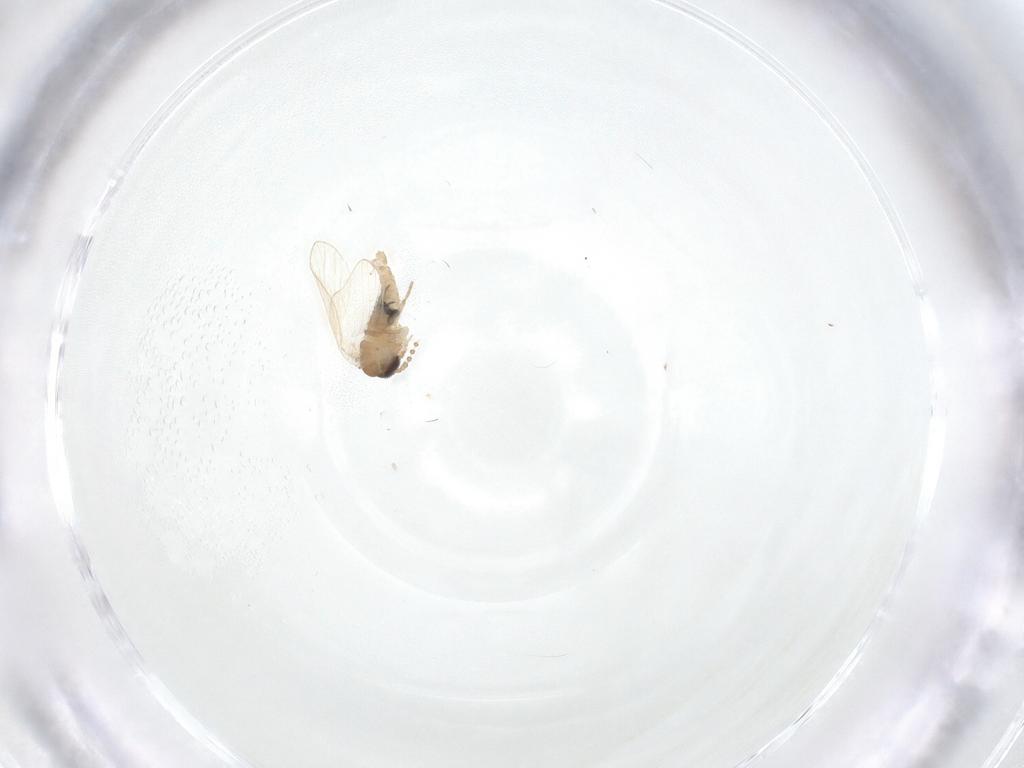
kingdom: Animalia
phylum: Arthropoda
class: Insecta
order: Diptera
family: Psychodidae
